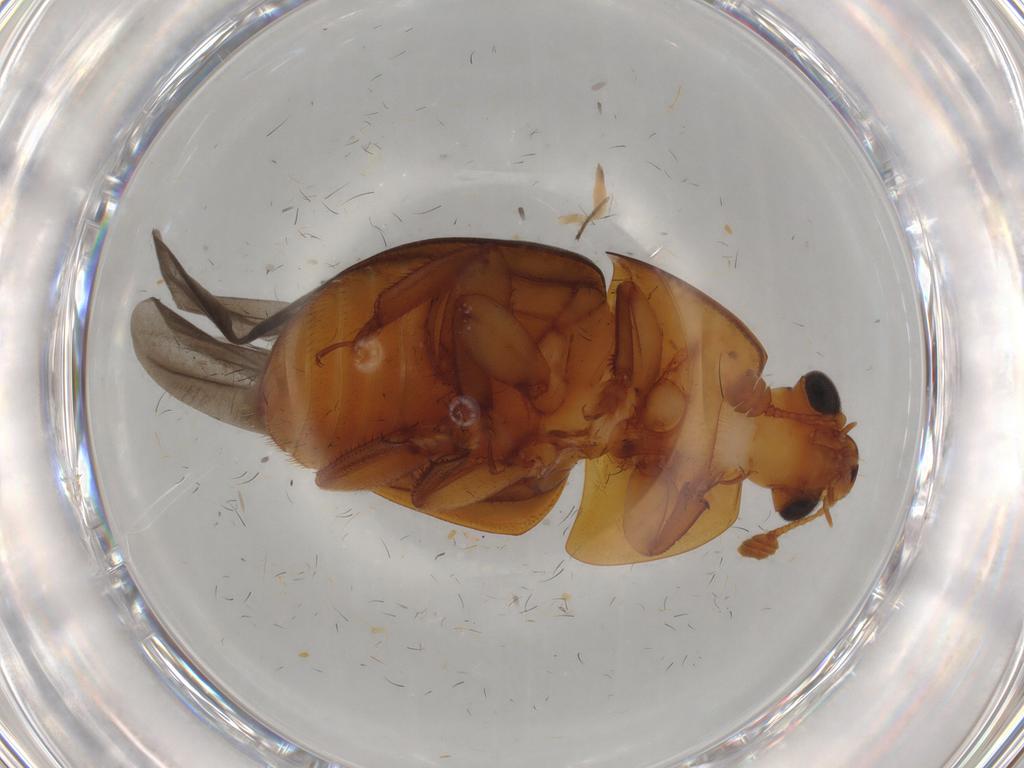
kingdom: Animalia
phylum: Arthropoda
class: Insecta
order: Coleoptera
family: Nitidulidae
